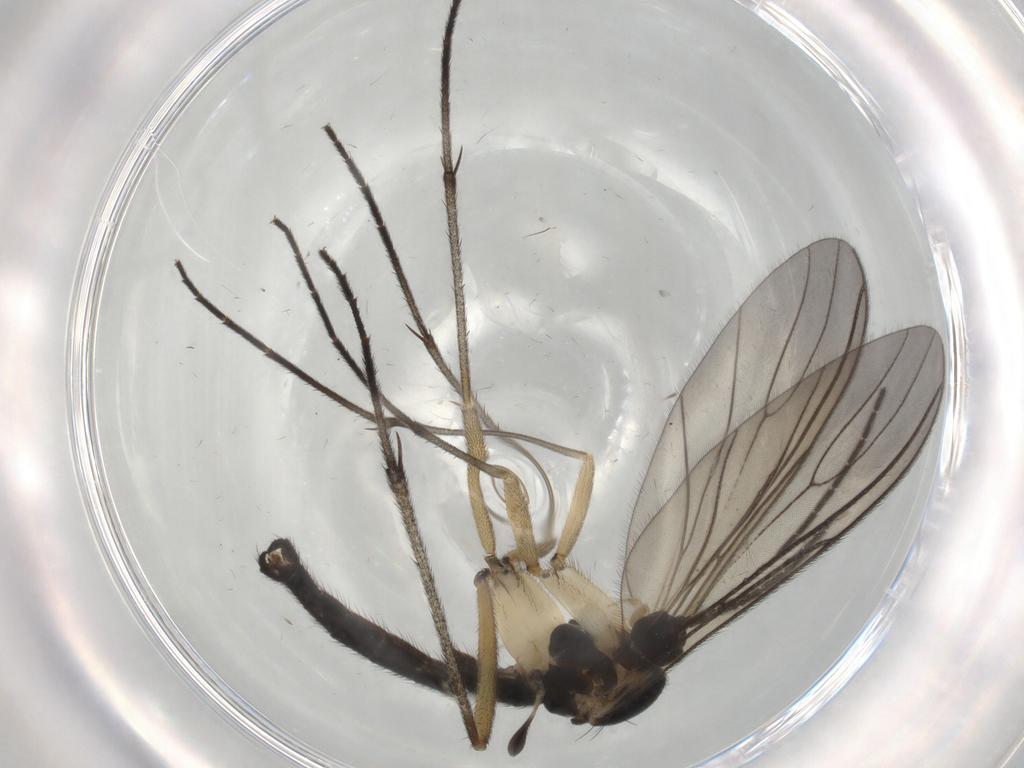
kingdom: Animalia
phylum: Arthropoda
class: Insecta
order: Diptera
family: Sciaridae
